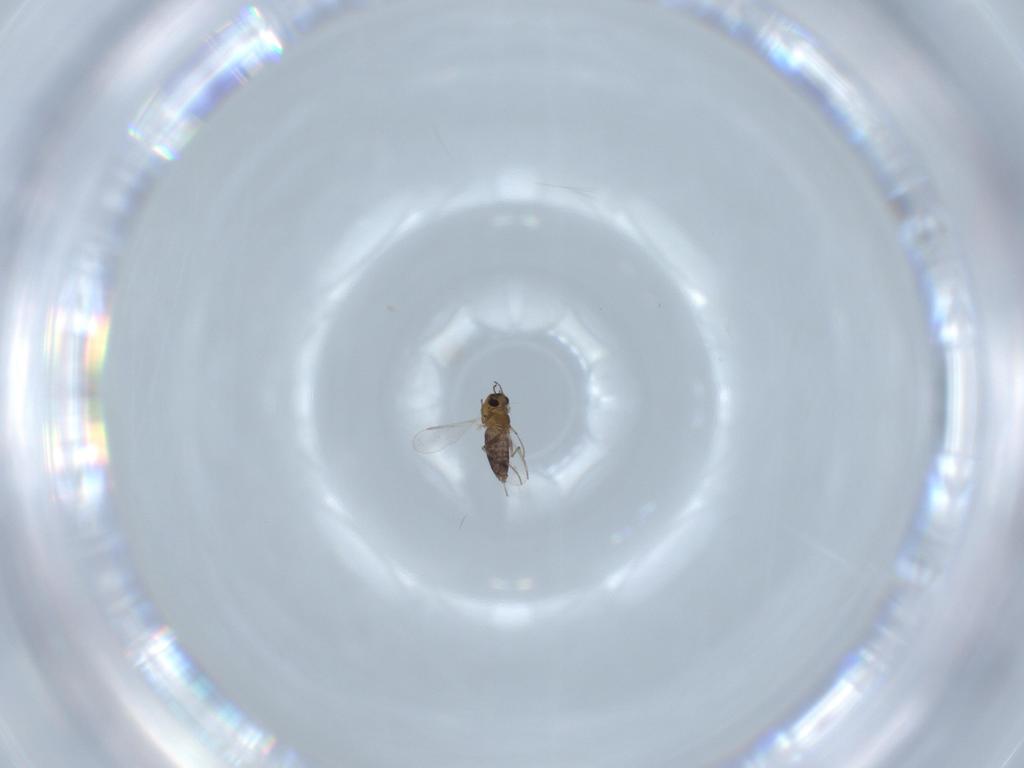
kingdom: Animalia
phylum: Arthropoda
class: Insecta
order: Diptera
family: Chironomidae
